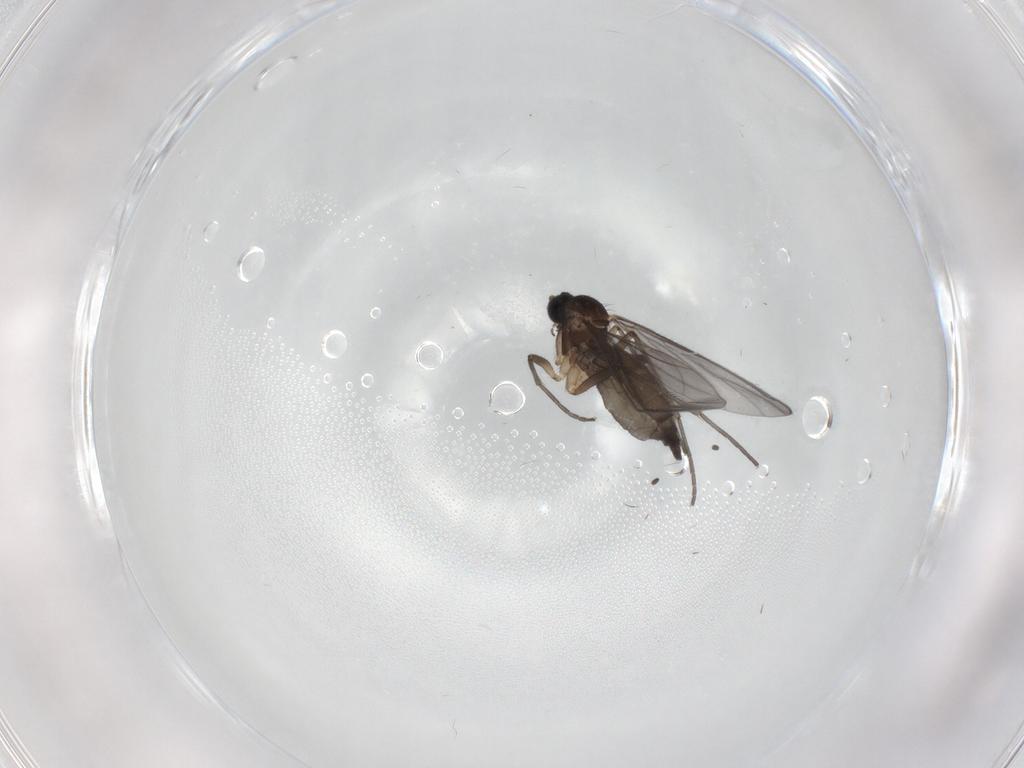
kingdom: Animalia
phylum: Arthropoda
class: Insecta
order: Diptera
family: Sciaridae
